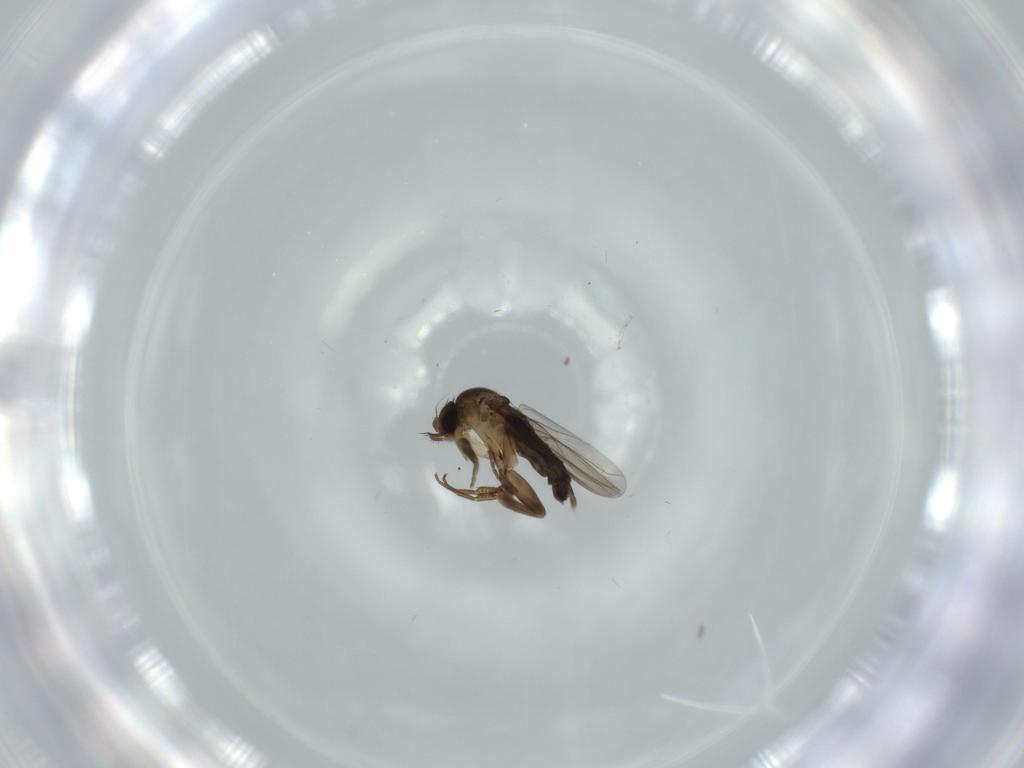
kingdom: Animalia
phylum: Arthropoda
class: Insecta
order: Diptera
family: Phoridae
